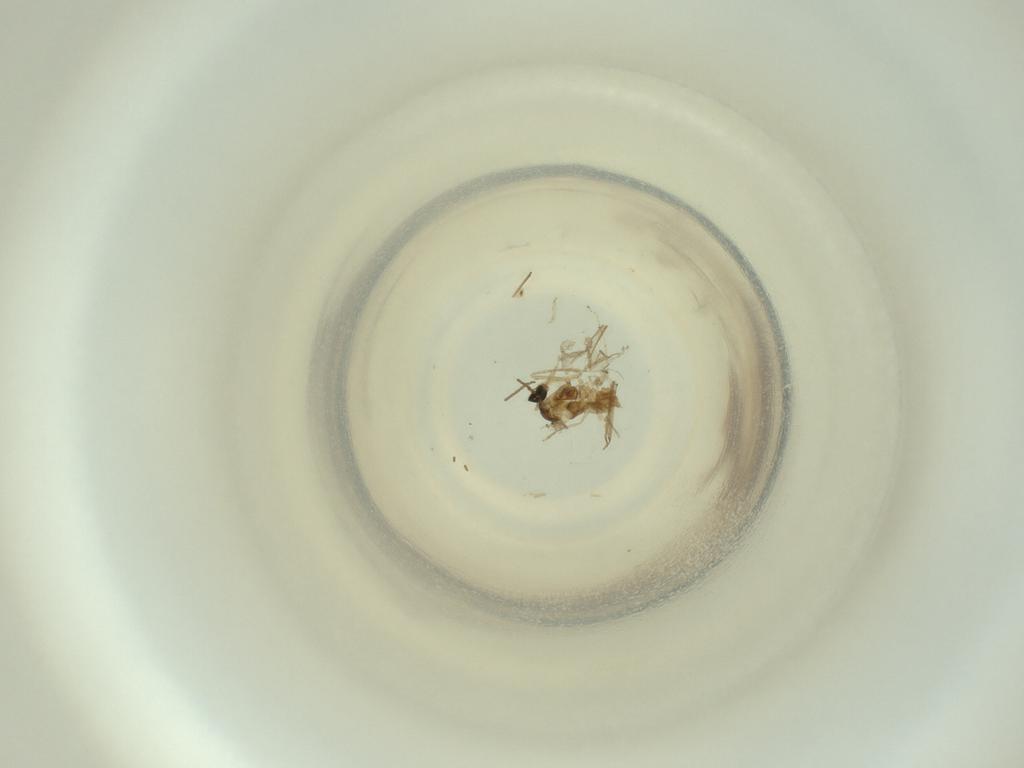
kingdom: Animalia
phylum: Arthropoda
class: Insecta
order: Diptera
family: Cecidomyiidae
